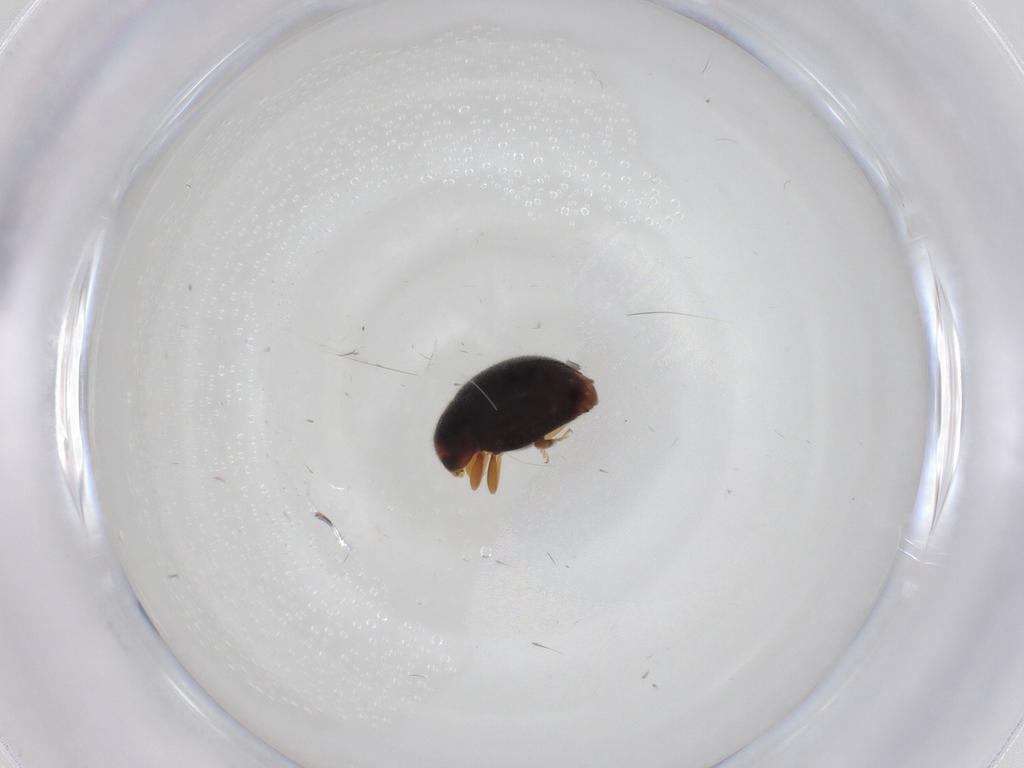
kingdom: Animalia
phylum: Arthropoda
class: Insecta
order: Coleoptera
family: Coccinellidae
